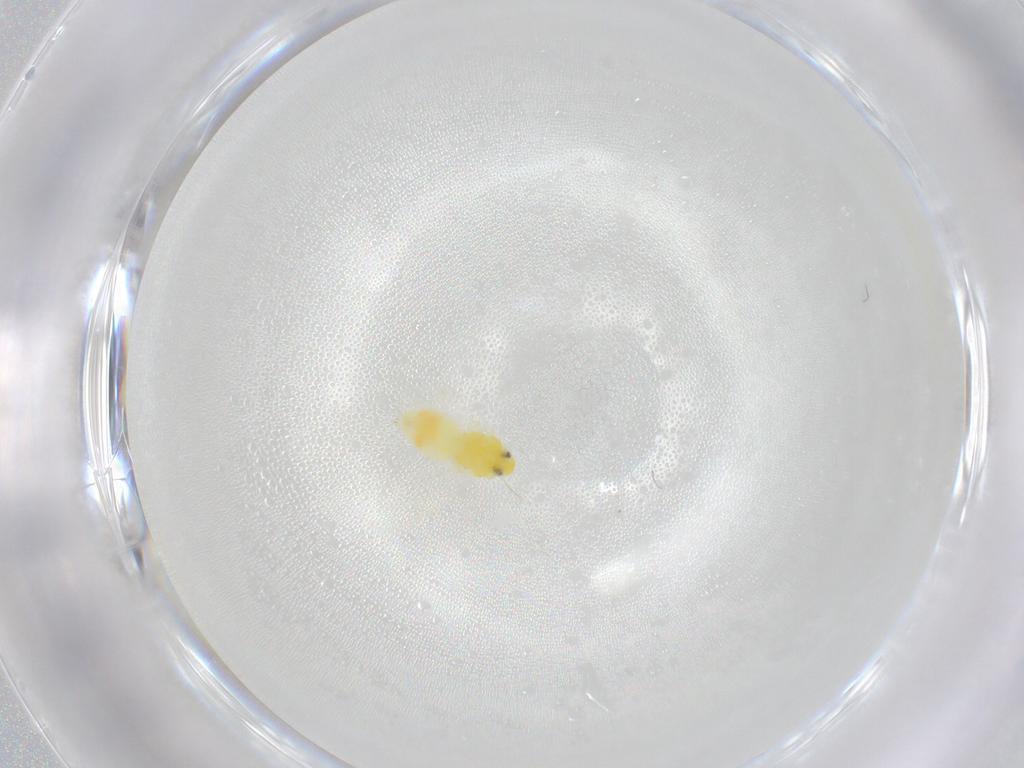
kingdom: Animalia
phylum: Arthropoda
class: Insecta
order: Hemiptera
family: Aleyrodidae
